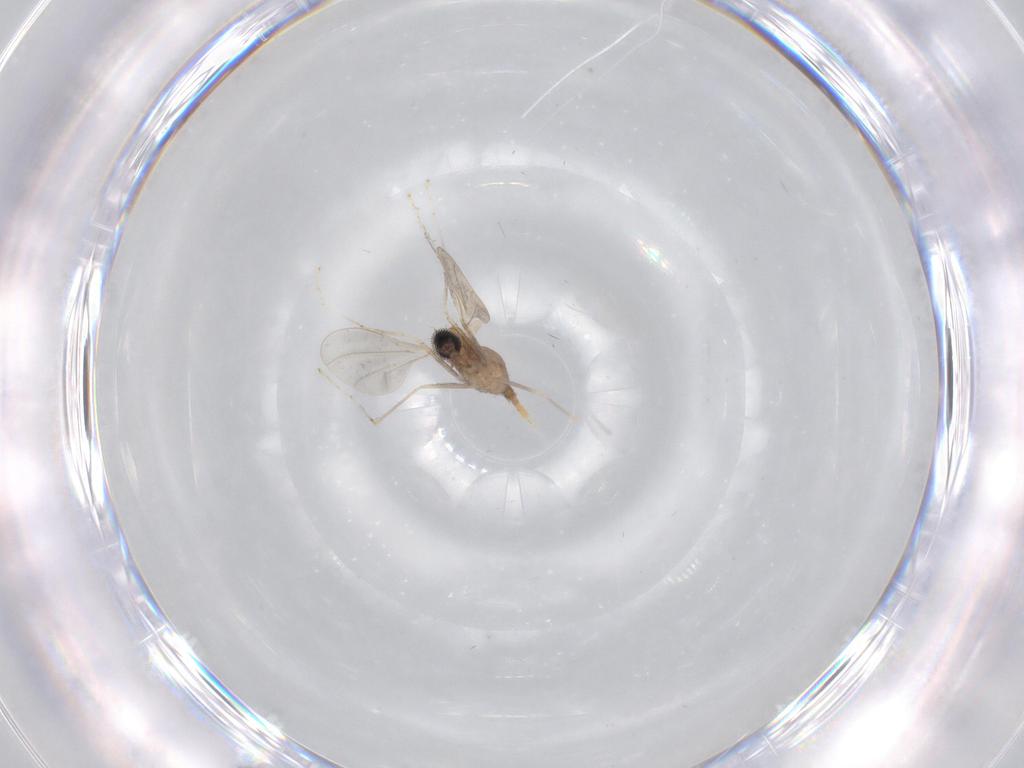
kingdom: Animalia
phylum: Arthropoda
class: Insecta
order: Diptera
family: Cecidomyiidae
